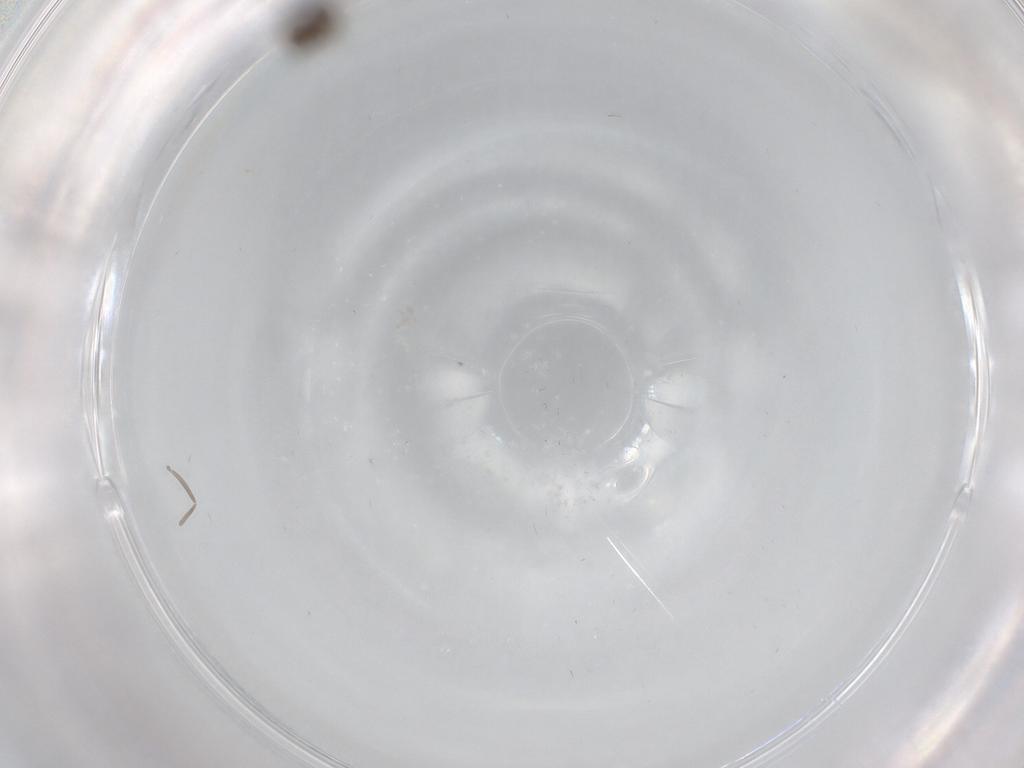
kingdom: Animalia
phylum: Arthropoda
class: Insecta
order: Diptera
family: Cecidomyiidae
